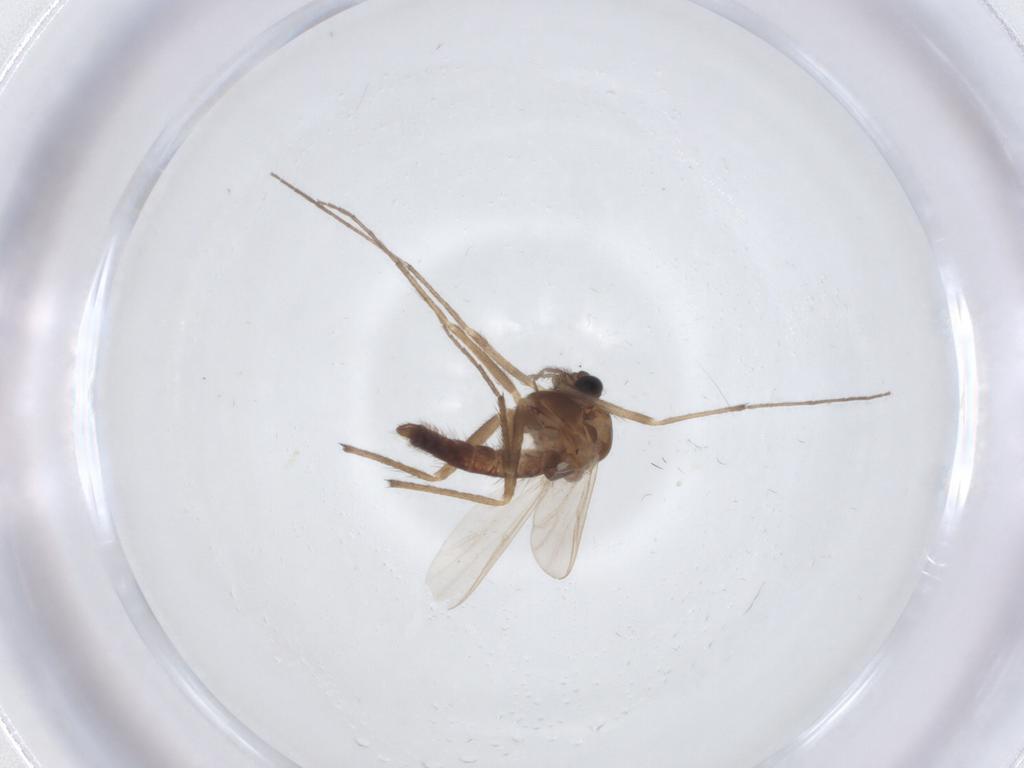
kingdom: Animalia
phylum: Arthropoda
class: Insecta
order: Diptera
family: Chironomidae
